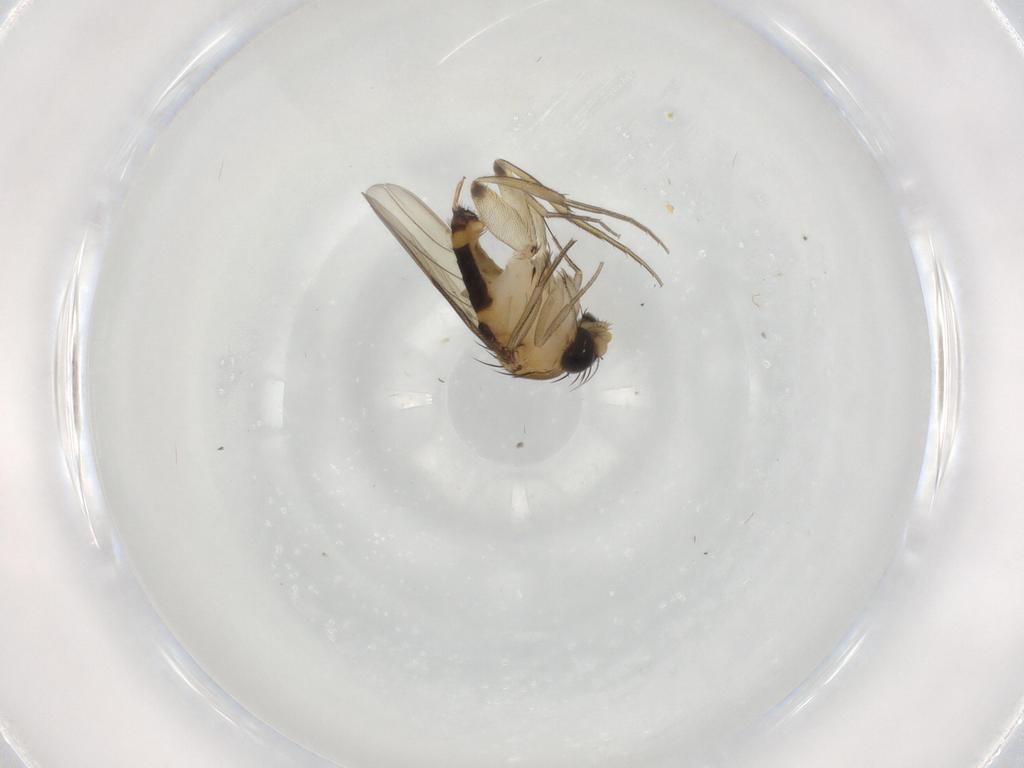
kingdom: Animalia
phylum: Arthropoda
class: Insecta
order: Diptera
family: Phoridae
